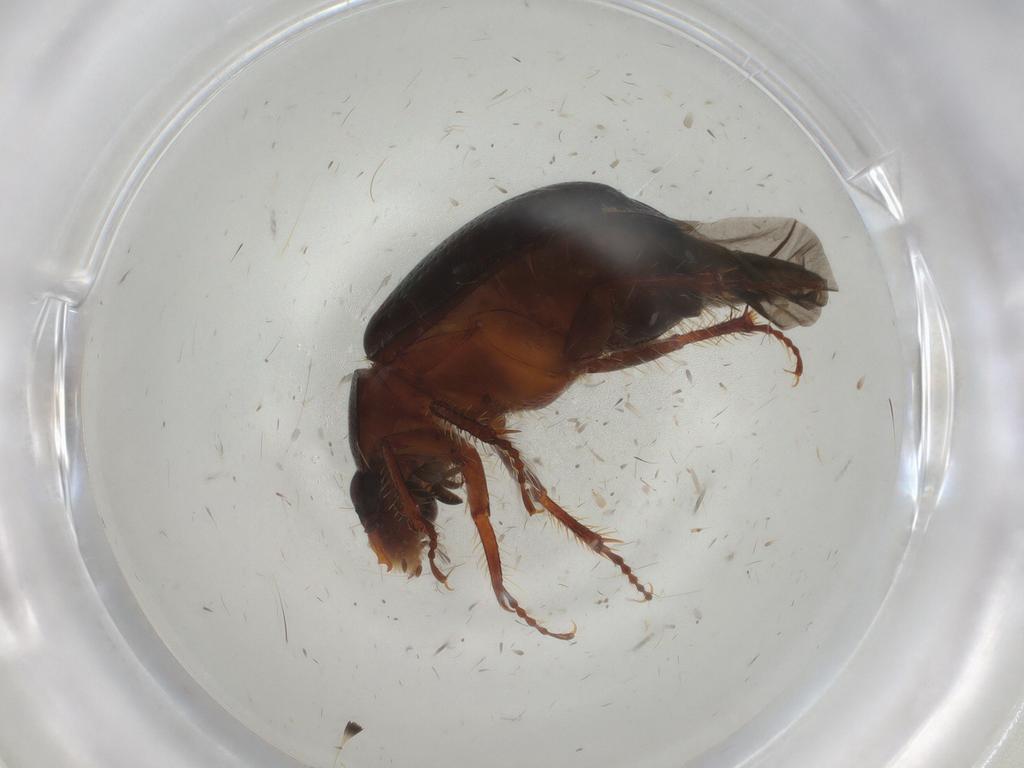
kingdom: Animalia
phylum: Arthropoda
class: Insecta
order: Coleoptera
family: Hybosoridae
